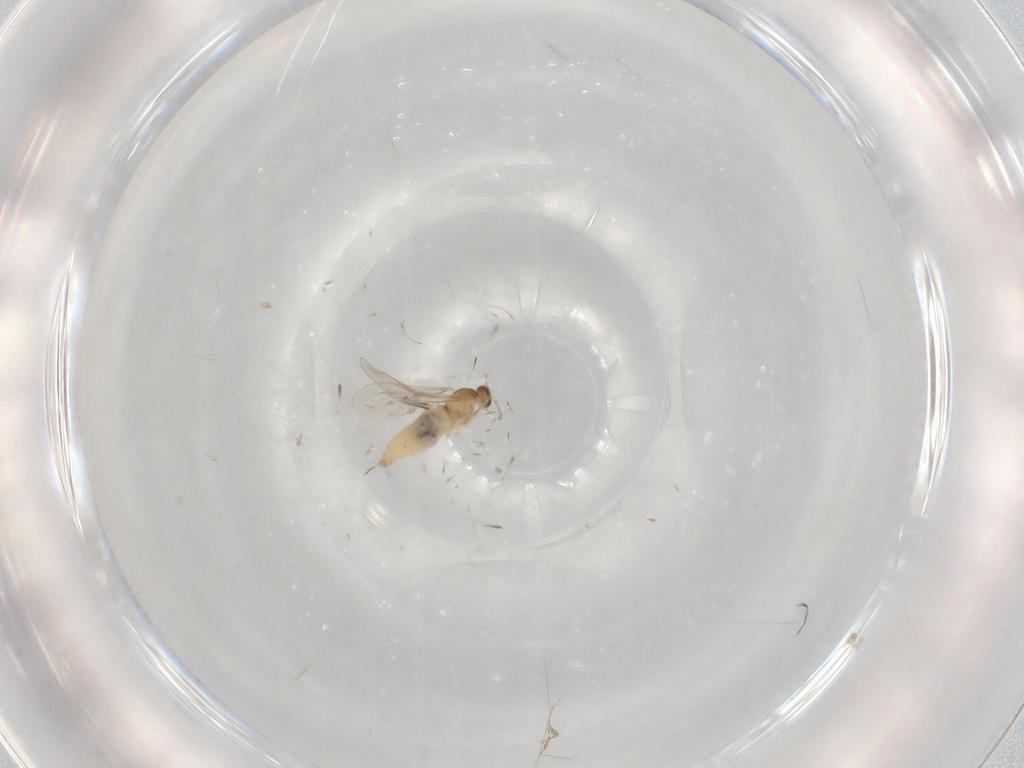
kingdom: Animalia
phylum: Arthropoda
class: Insecta
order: Diptera
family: Cecidomyiidae
